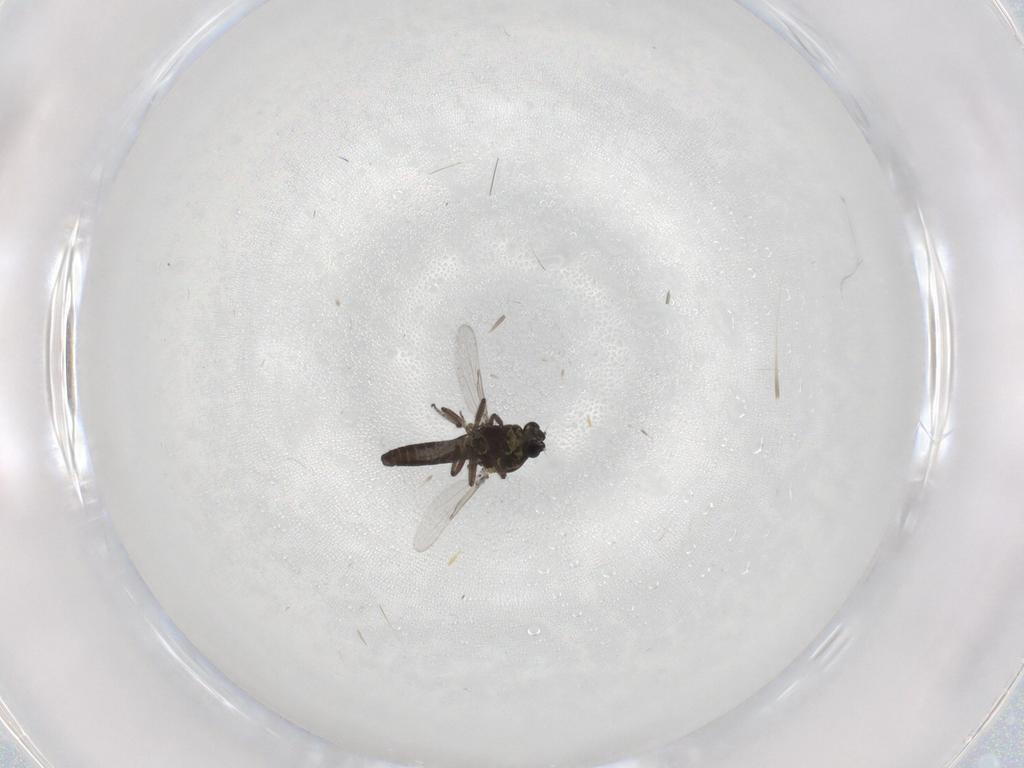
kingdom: Animalia
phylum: Arthropoda
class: Insecta
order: Diptera
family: Ceratopogonidae
